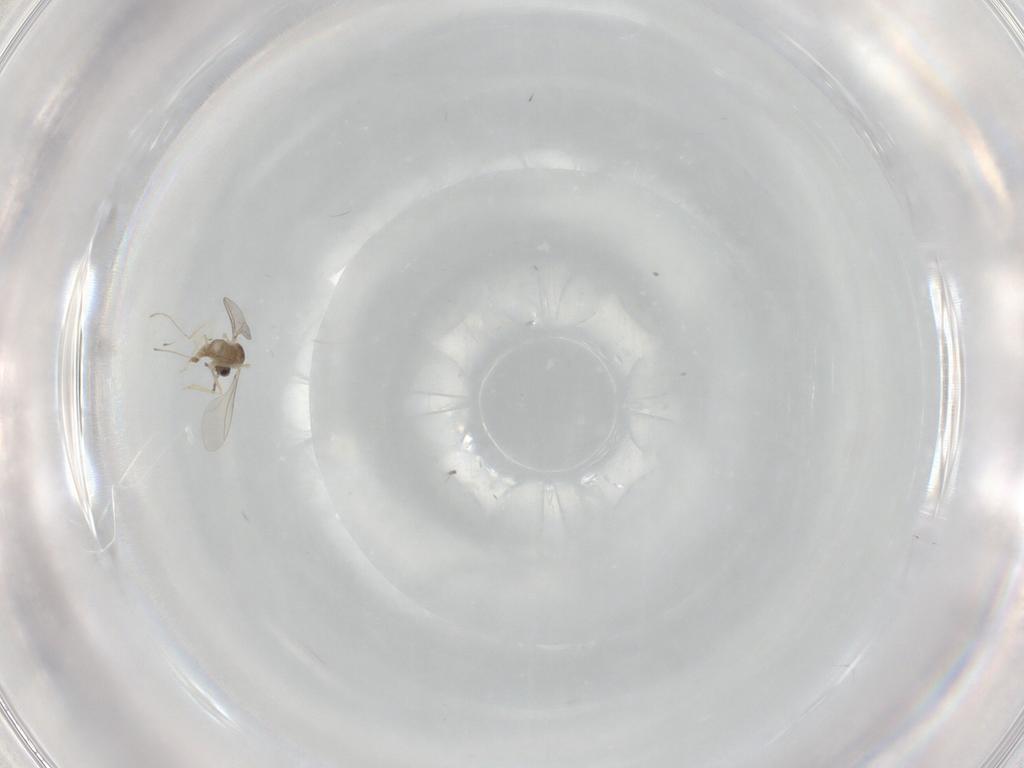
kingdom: Animalia
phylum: Arthropoda
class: Insecta
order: Diptera
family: Cecidomyiidae
